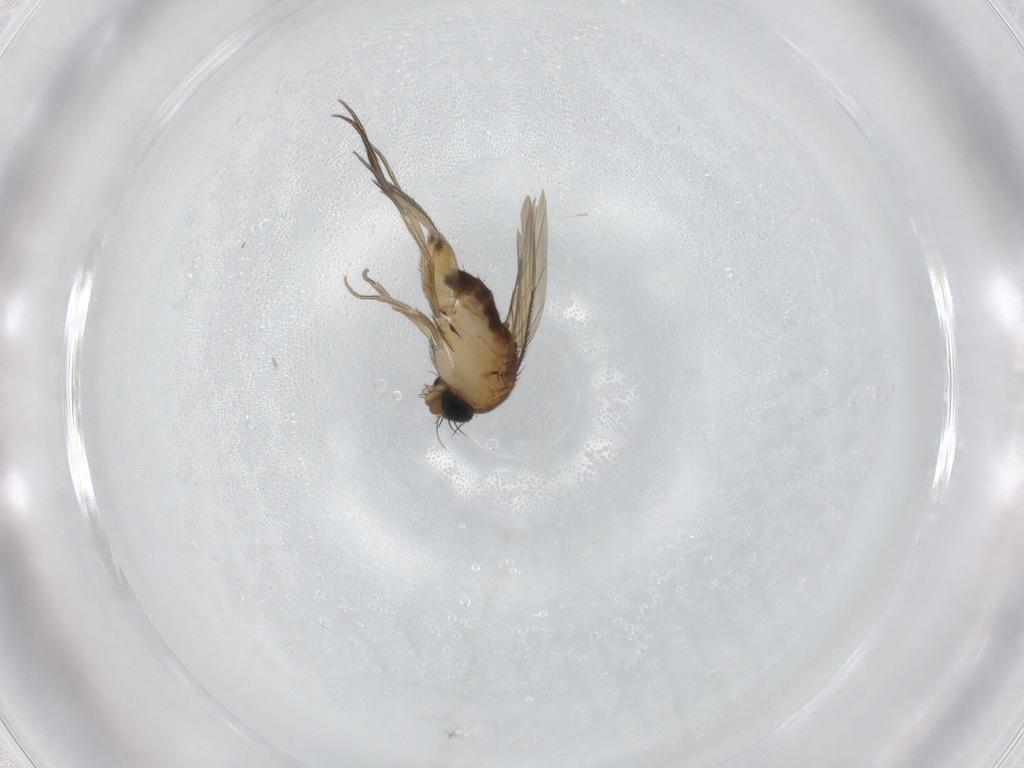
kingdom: Animalia
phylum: Arthropoda
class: Insecta
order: Diptera
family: Phoridae
